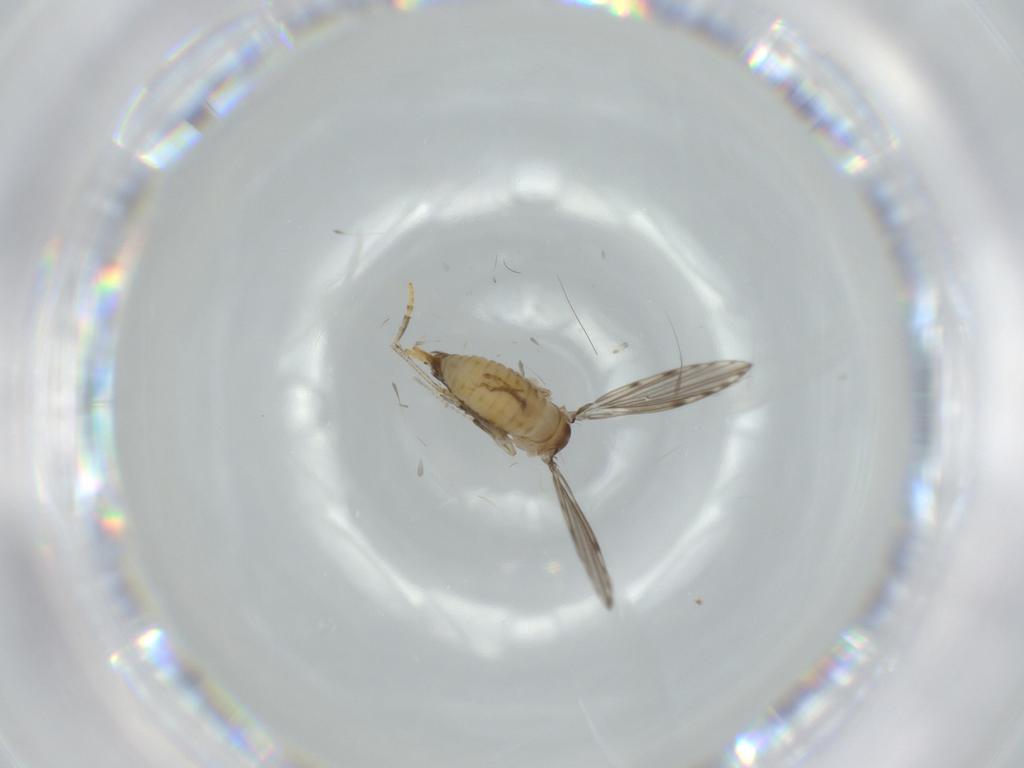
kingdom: Animalia
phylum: Arthropoda
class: Insecta
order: Diptera
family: Psychodidae
